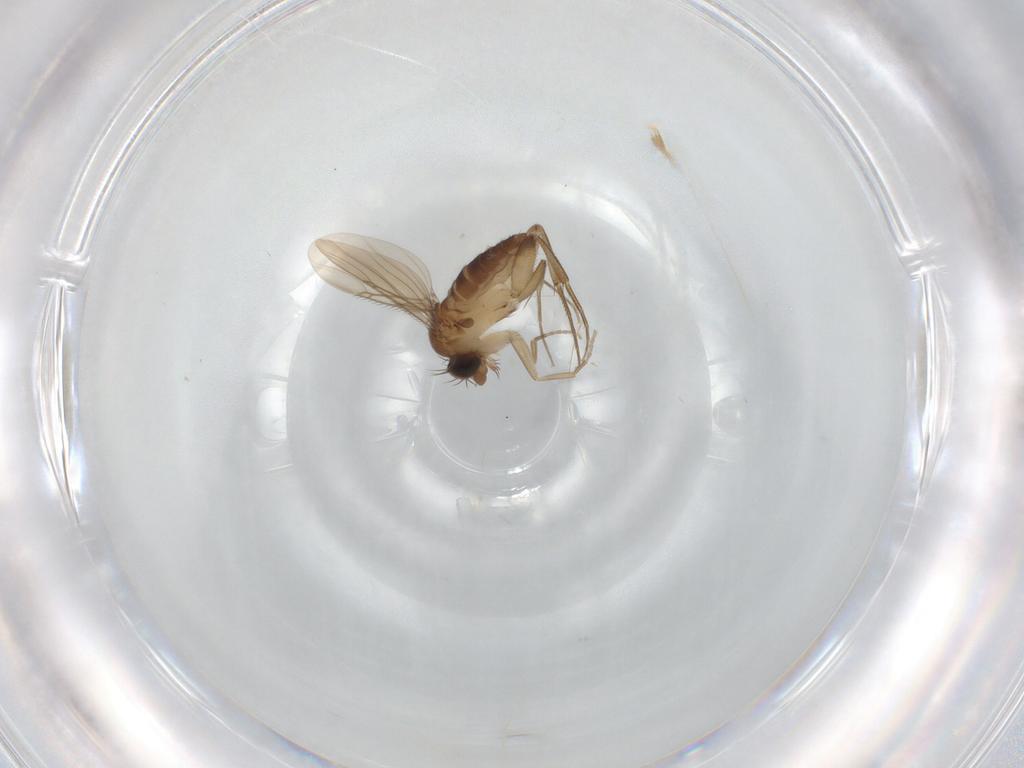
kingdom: Animalia
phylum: Arthropoda
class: Insecta
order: Diptera
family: Phoridae
